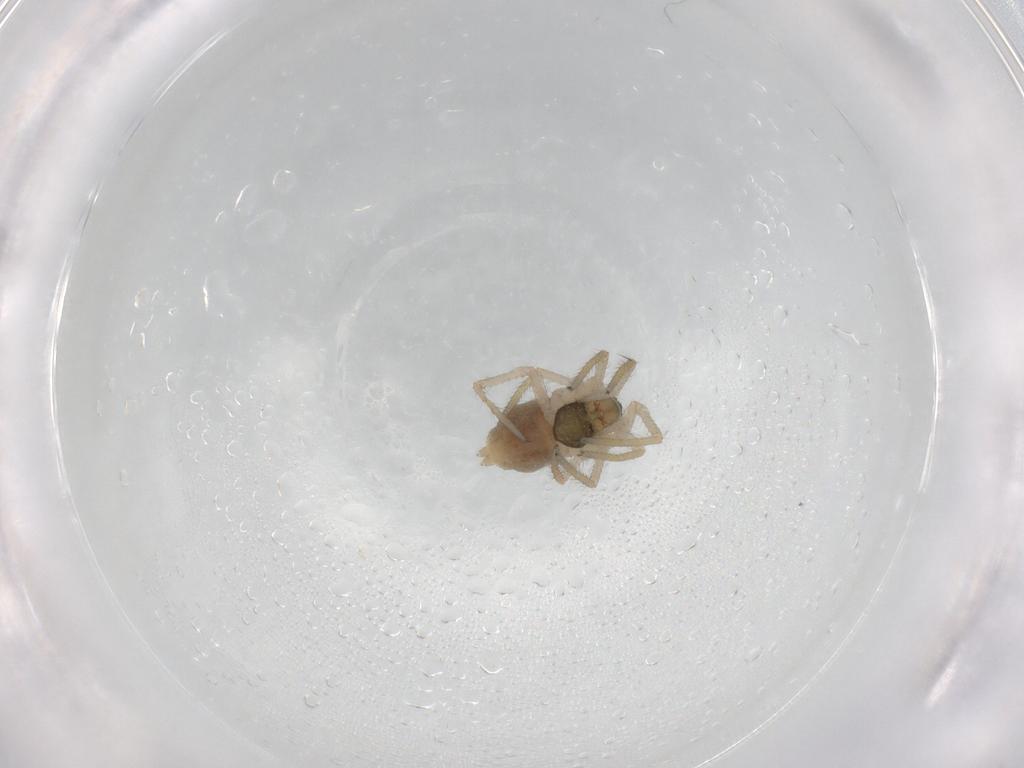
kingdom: Animalia
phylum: Arthropoda
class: Arachnida
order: Araneae
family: Linyphiidae
